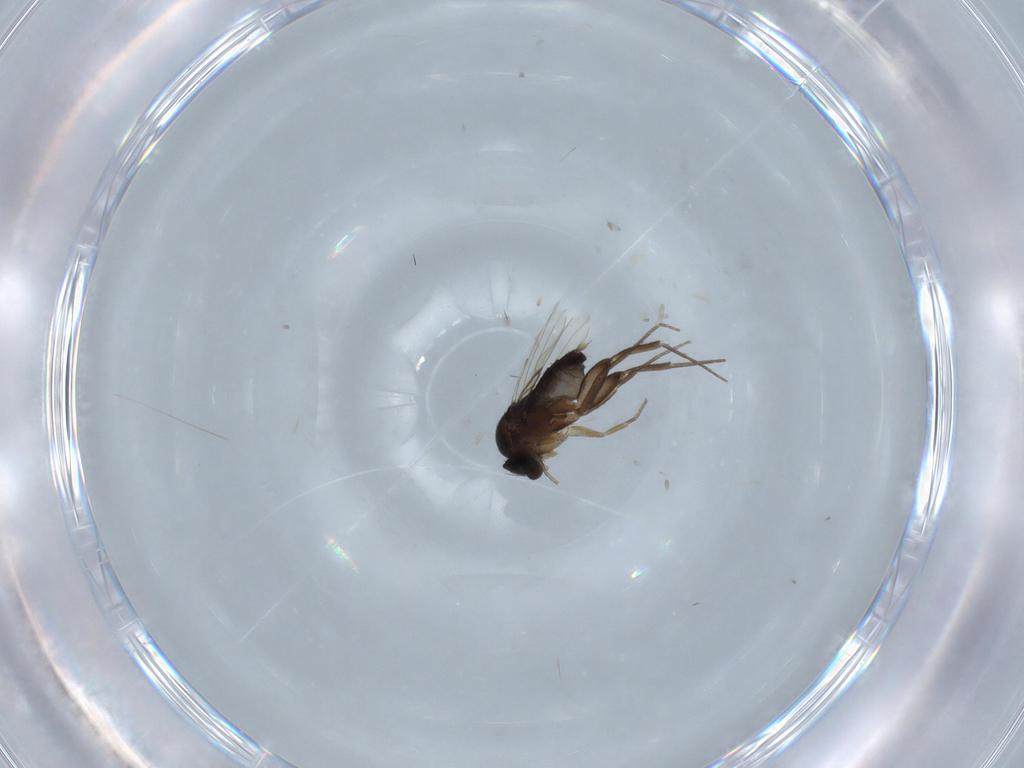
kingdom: Animalia
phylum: Arthropoda
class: Insecta
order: Diptera
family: Phoridae
